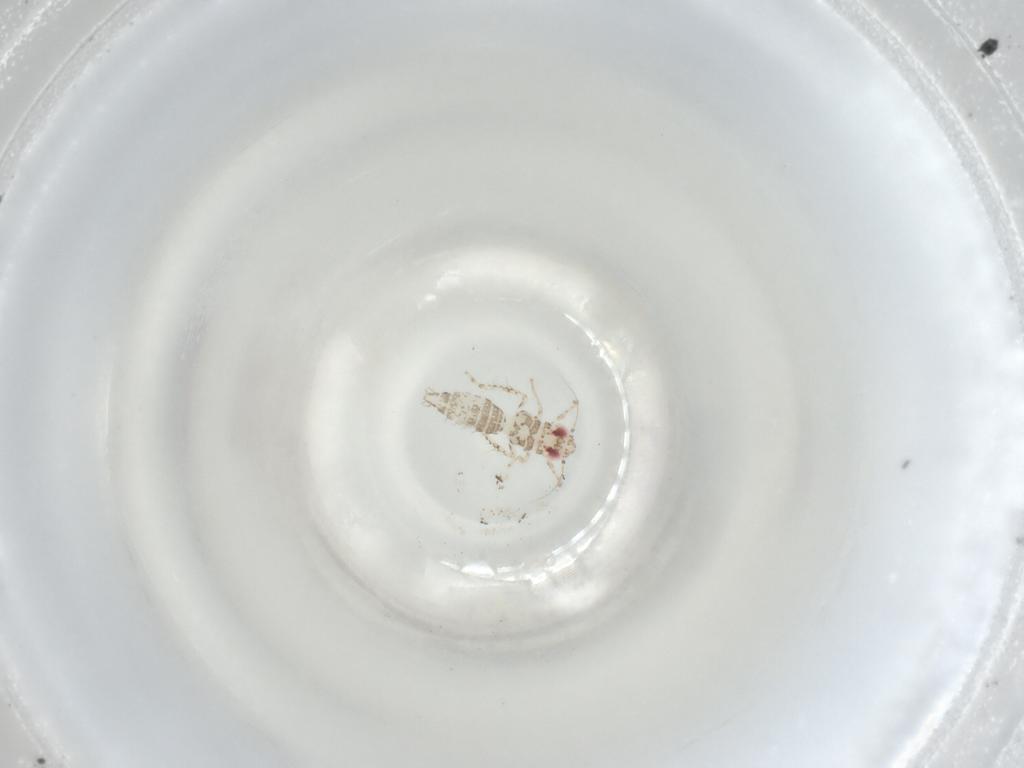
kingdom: Animalia
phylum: Arthropoda
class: Insecta
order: Hemiptera
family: Cicadellidae
